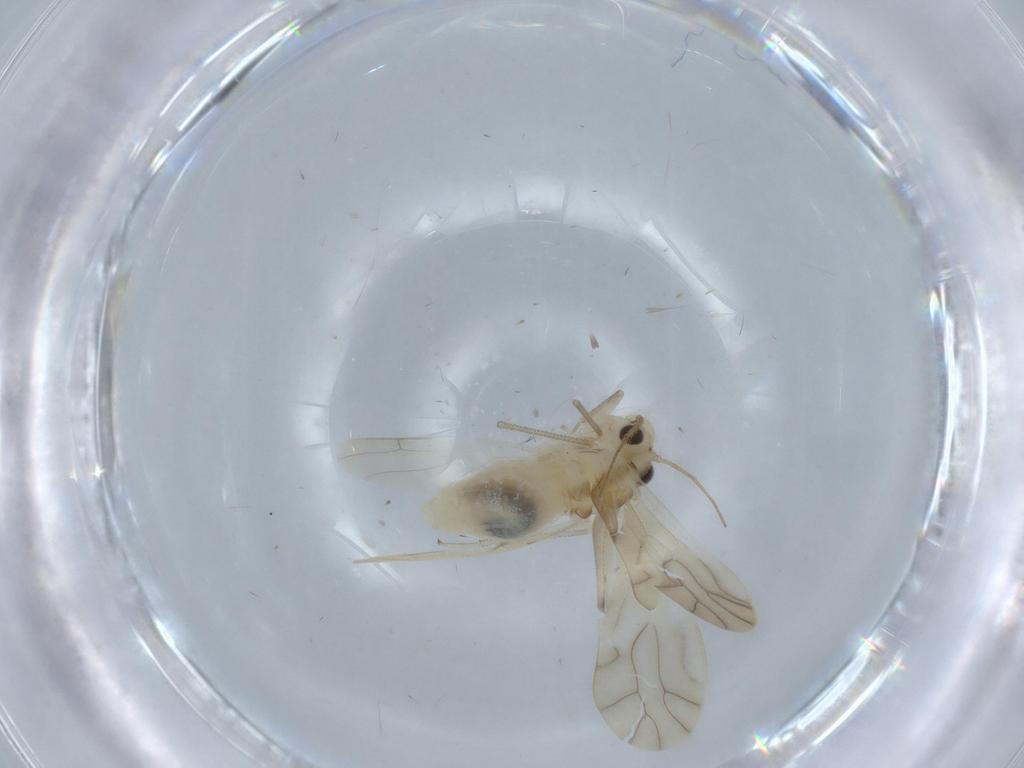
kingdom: Animalia
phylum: Arthropoda
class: Insecta
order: Psocodea
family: Caeciliusidae
